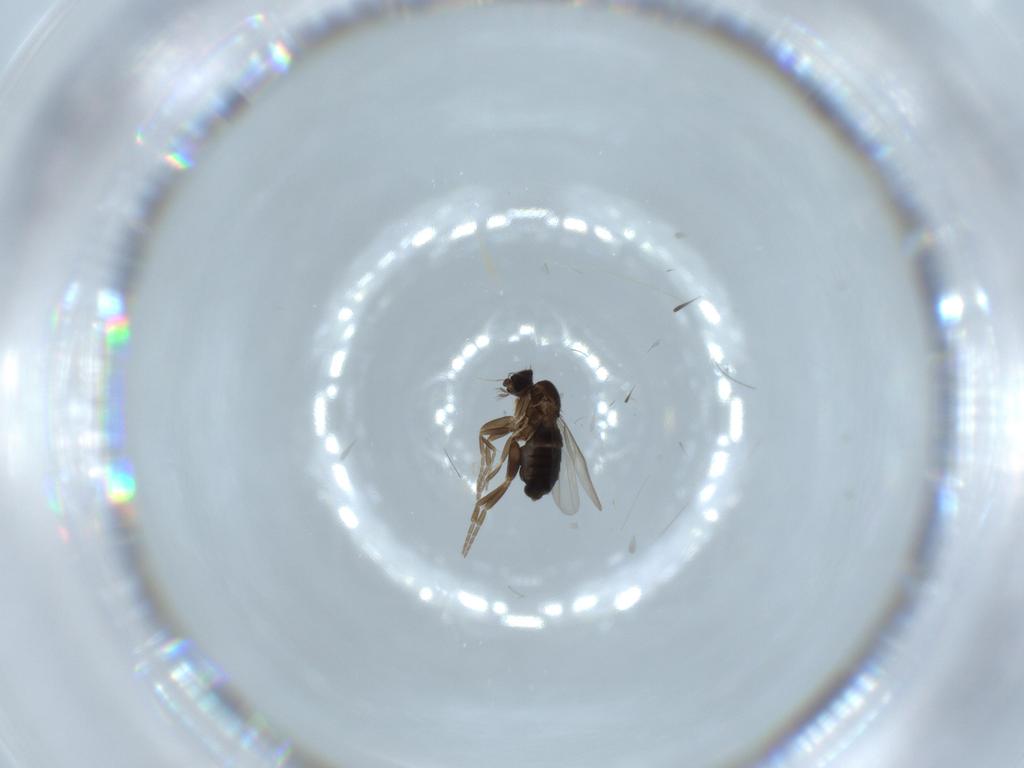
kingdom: Animalia
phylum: Arthropoda
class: Insecta
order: Diptera
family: Phoridae
